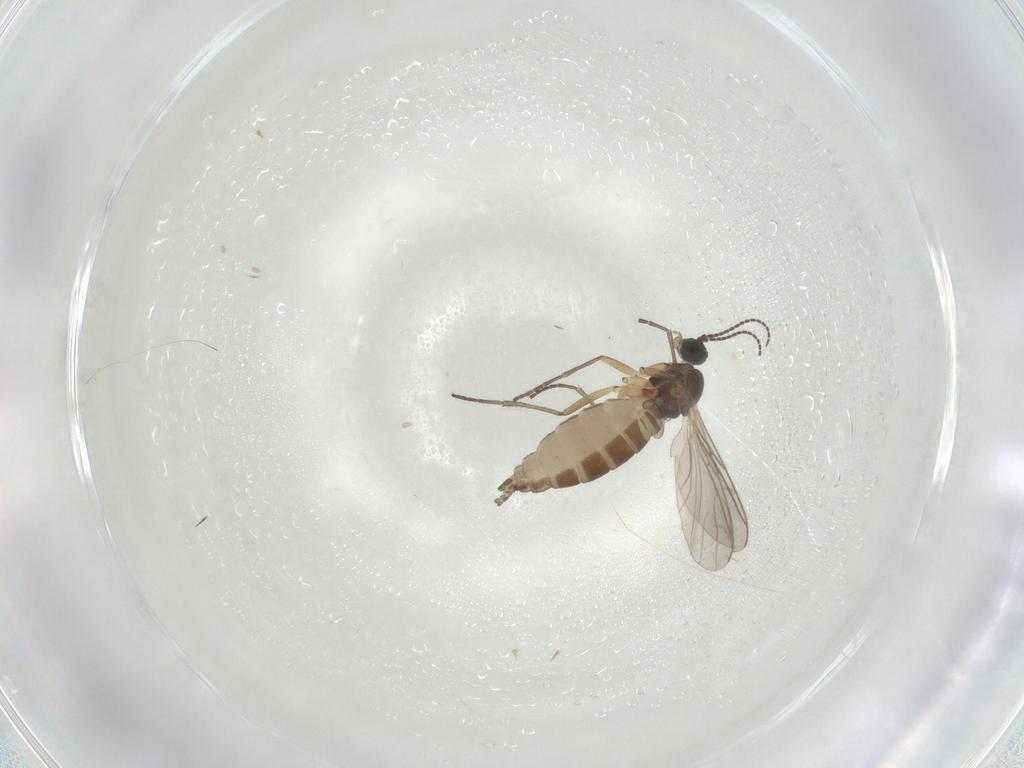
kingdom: Animalia
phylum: Arthropoda
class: Insecta
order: Diptera
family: Sciaridae
